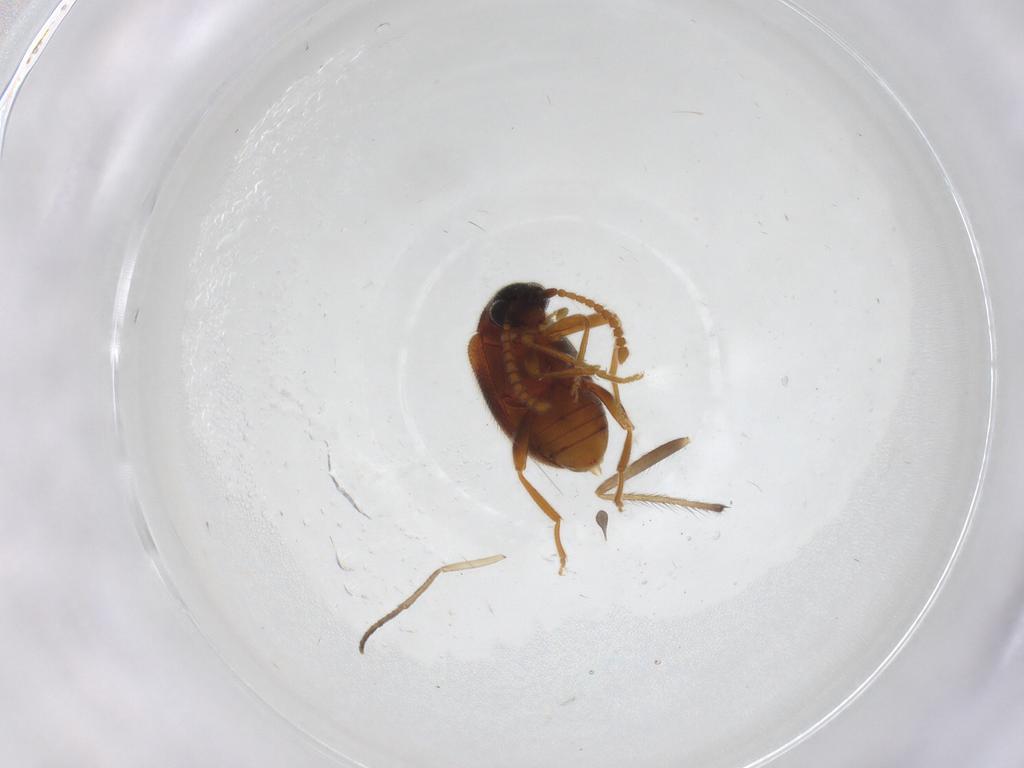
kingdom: Animalia
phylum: Arthropoda
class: Insecta
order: Coleoptera
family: Aderidae
